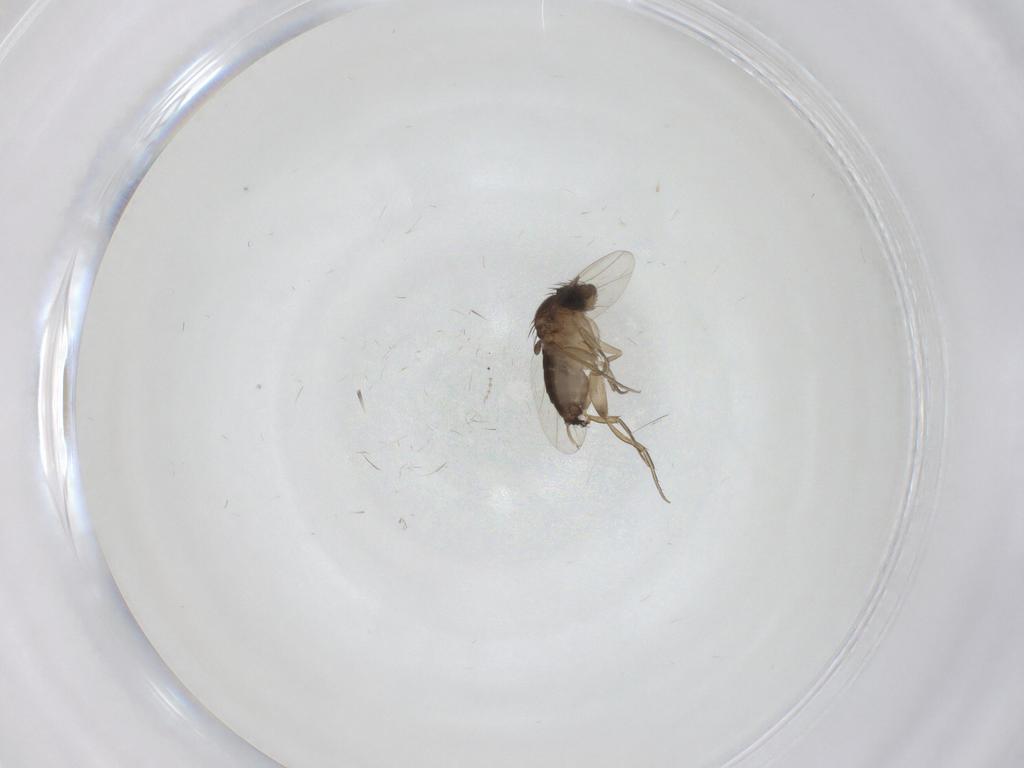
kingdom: Animalia
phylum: Arthropoda
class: Insecta
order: Diptera
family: Phoridae
